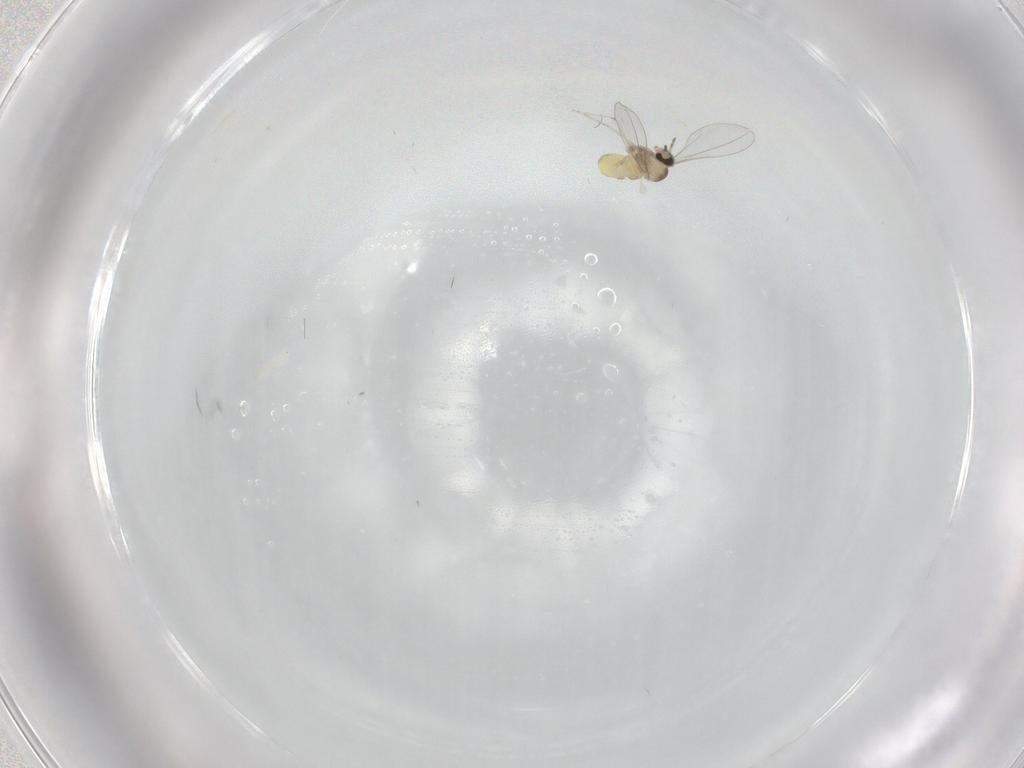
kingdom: Animalia
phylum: Arthropoda
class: Insecta
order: Diptera
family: Cecidomyiidae
